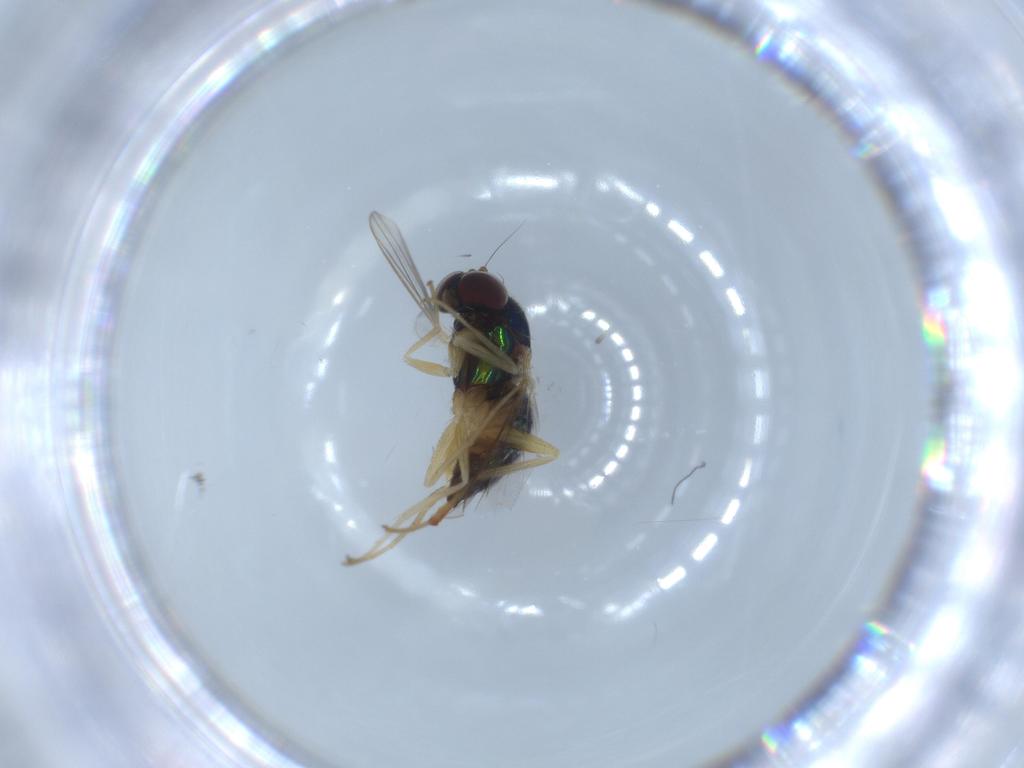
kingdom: Animalia
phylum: Arthropoda
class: Insecta
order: Diptera
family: Dolichopodidae
